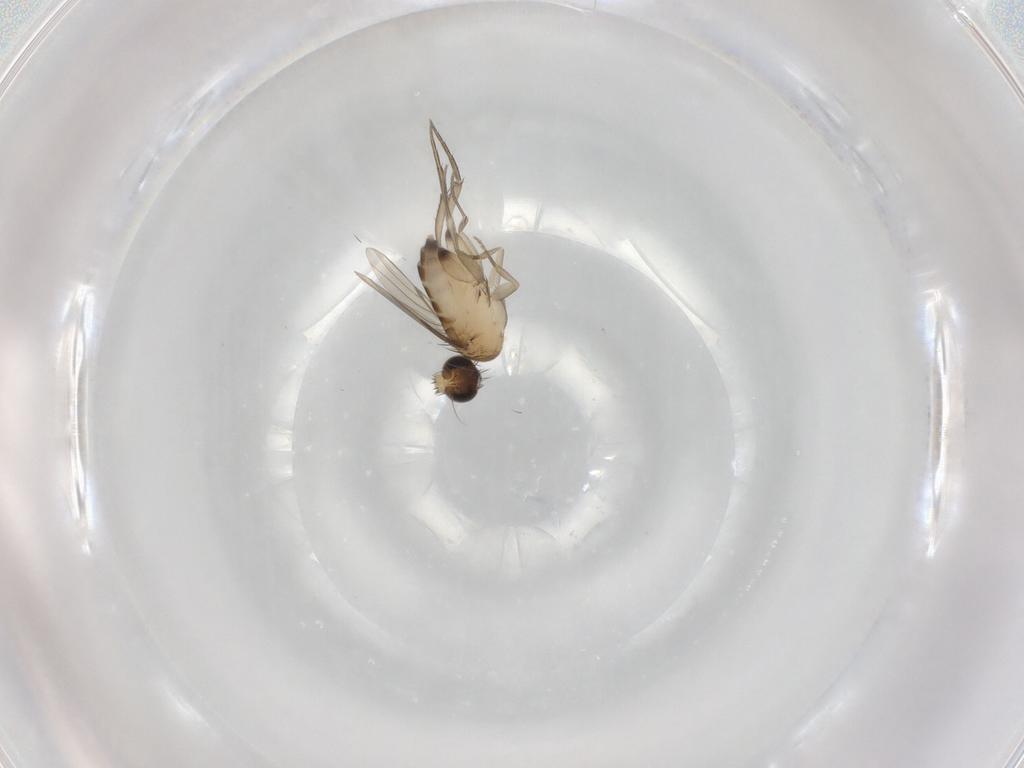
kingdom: Animalia
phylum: Arthropoda
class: Insecta
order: Diptera
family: Phoridae
